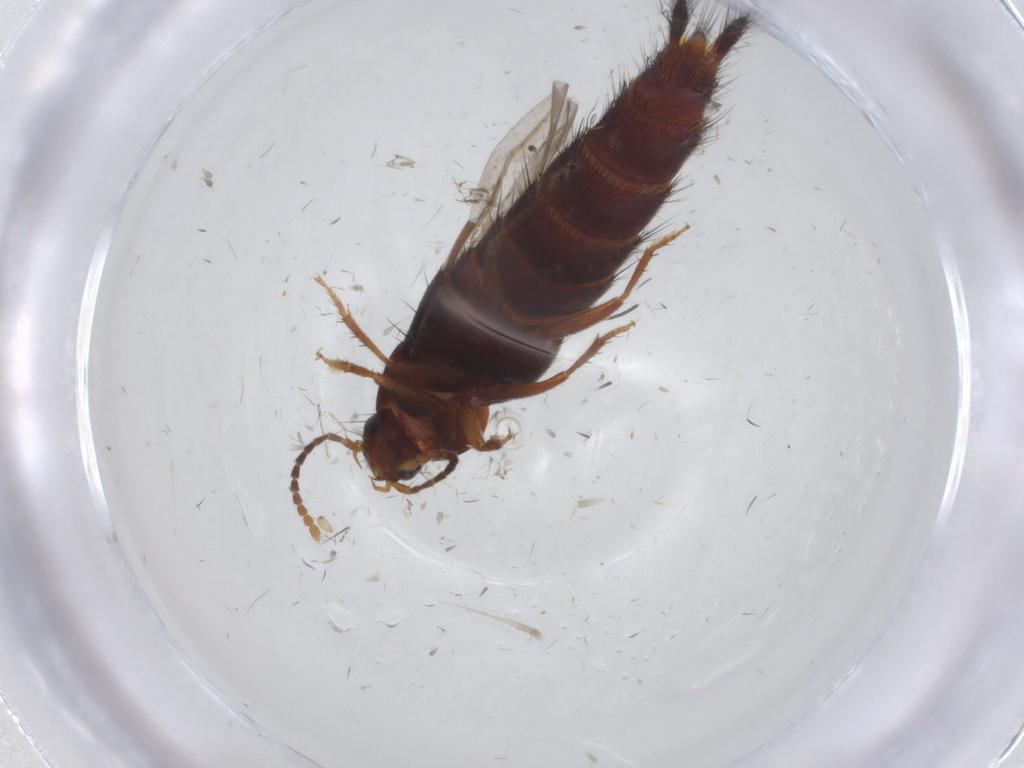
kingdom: Animalia
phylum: Arthropoda
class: Insecta
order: Coleoptera
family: Staphylinidae
